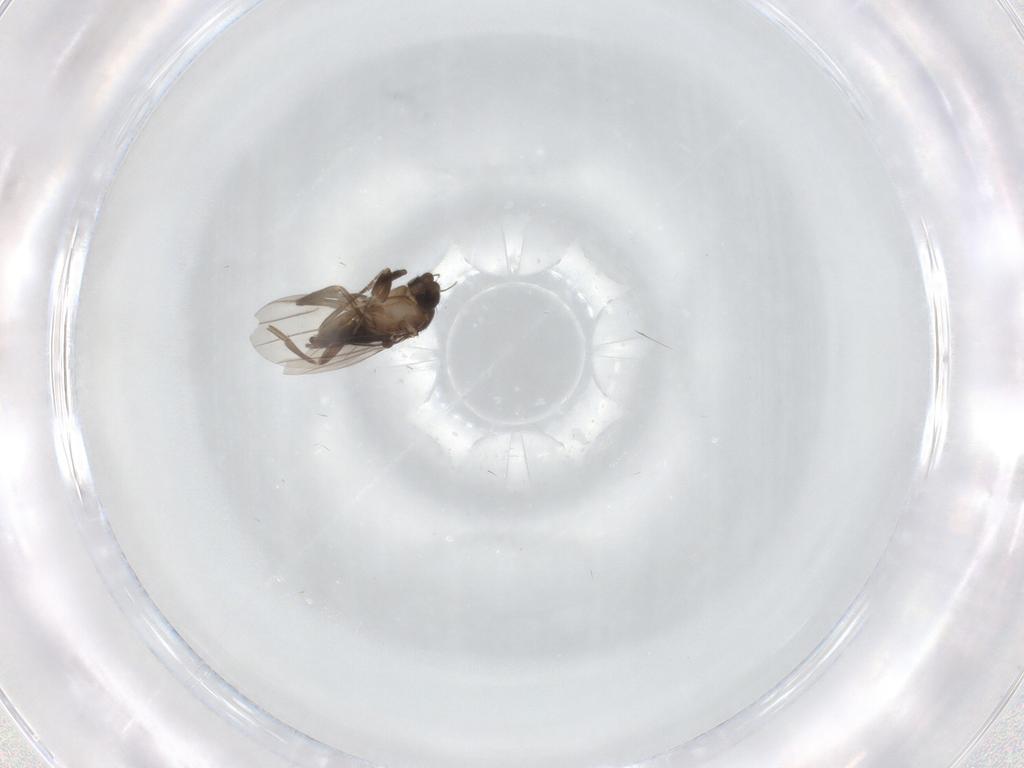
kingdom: Animalia
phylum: Arthropoda
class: Insecta
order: Diptera
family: Phoridae
